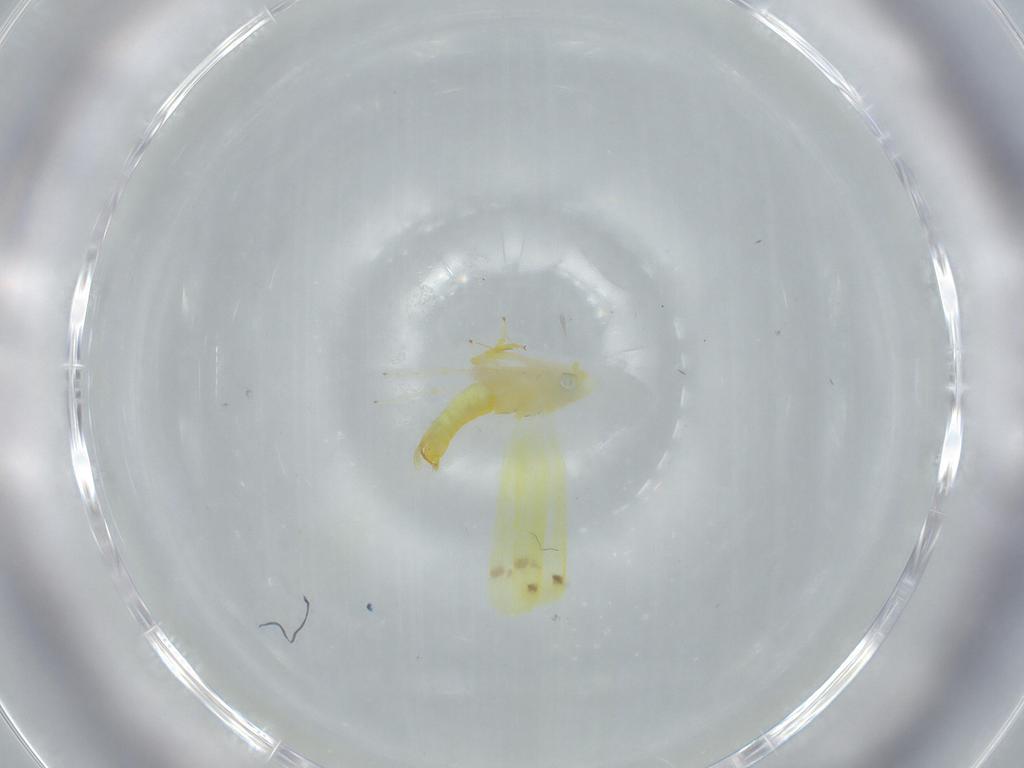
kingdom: Animalia
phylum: Arthropoda
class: Insecta
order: Hemiptera
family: Cicadellidae
